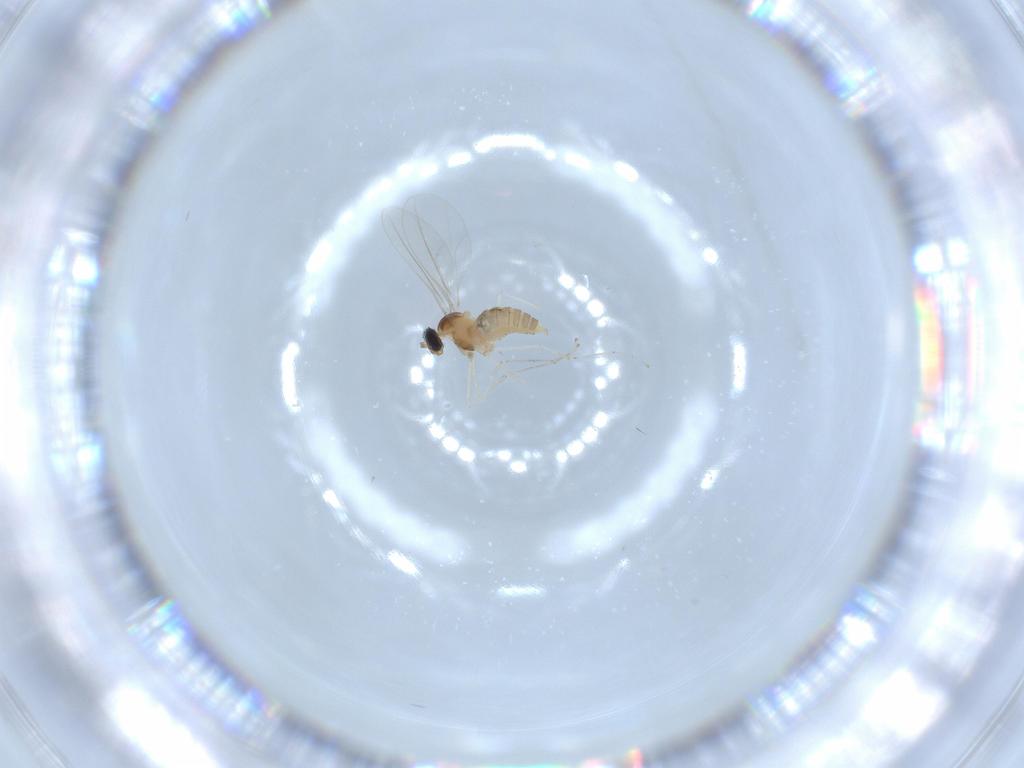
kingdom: Animalia
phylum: Arthropoda
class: Insecta
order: Diptera
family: Cecidomyiidae
